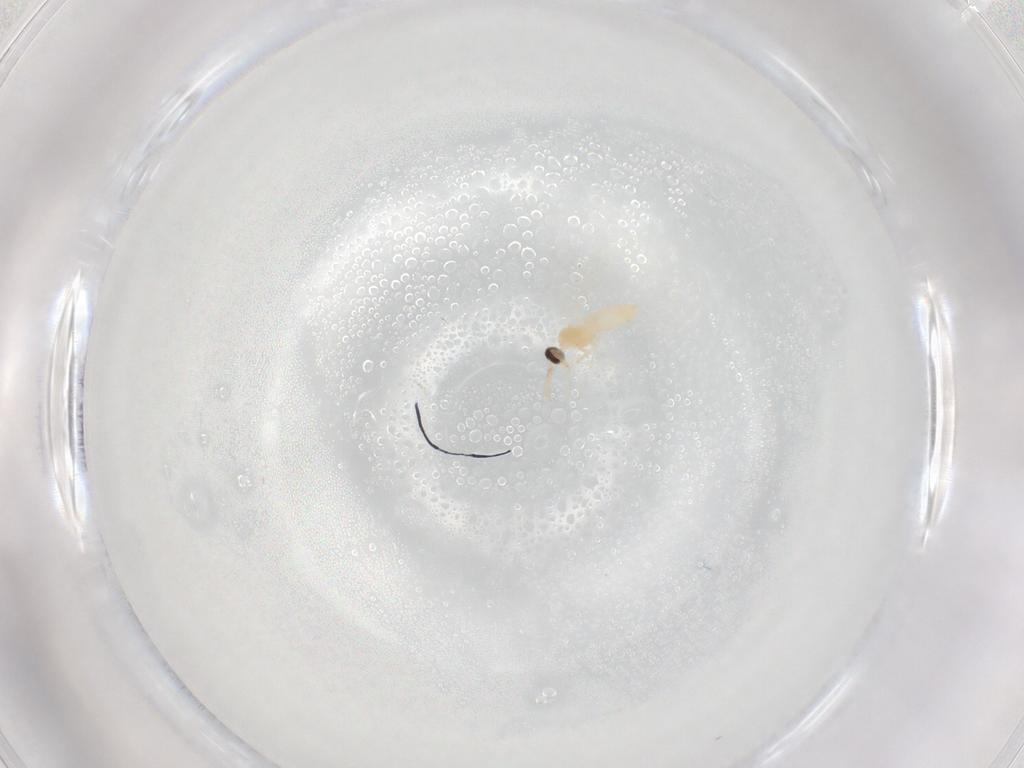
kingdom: Animalia
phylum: Arthropoda
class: Insecta
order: Diptera
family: Cecidomyiidae
